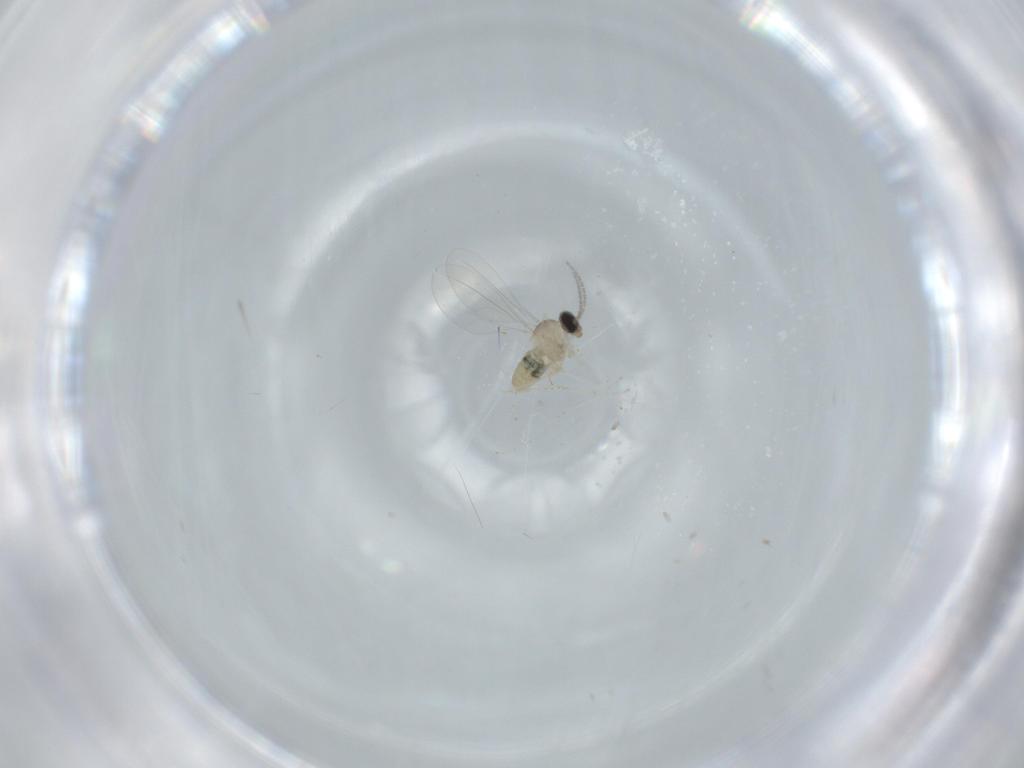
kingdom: Animalia
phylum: Arthropoda
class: Insecta
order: Diptera
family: Cecidomyiidae
